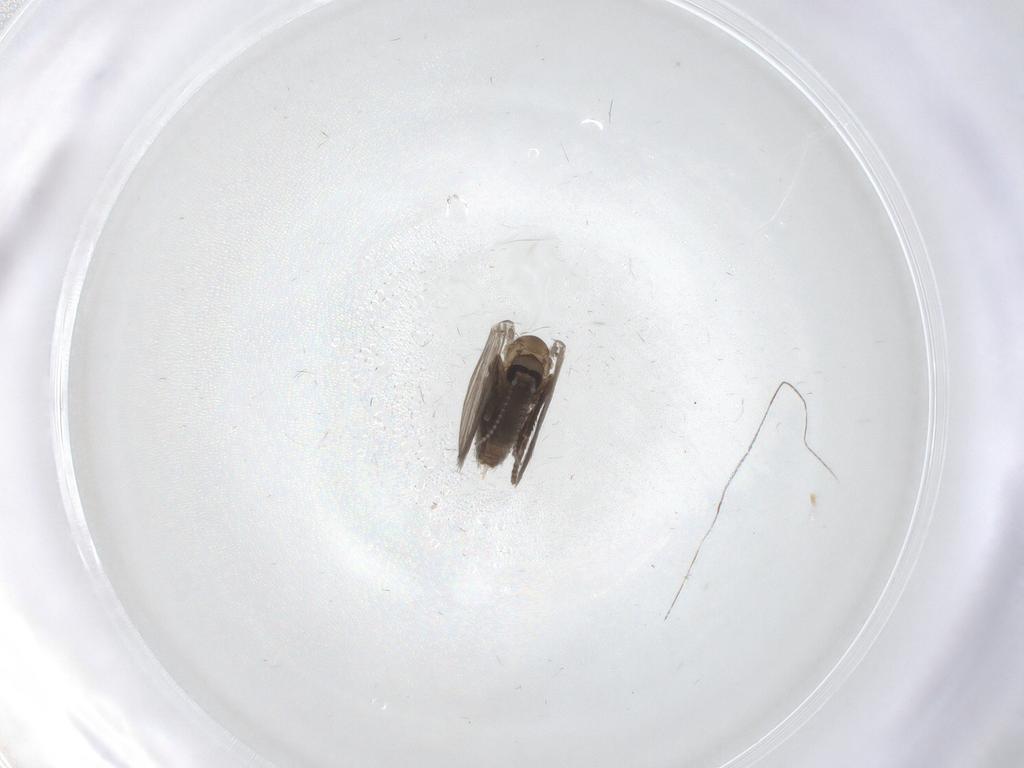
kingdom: Animalia
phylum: Arthropoda
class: Insecta
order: Diptera
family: Psychodidae
